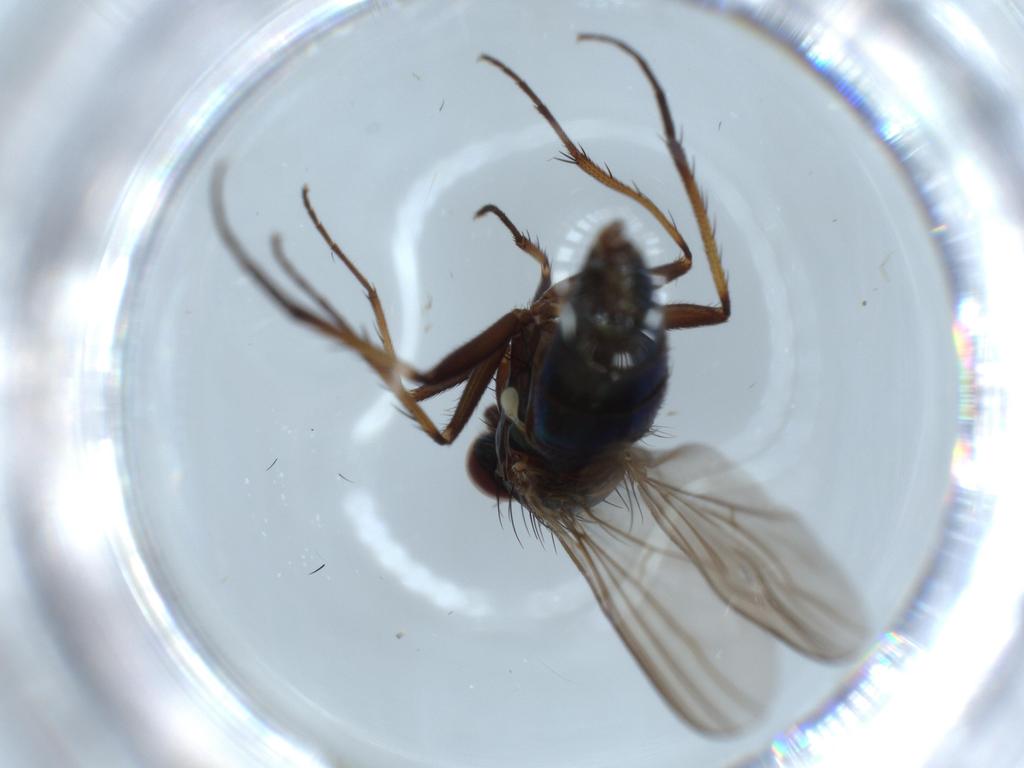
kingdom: Animalia
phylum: Arthropoda
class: Insecta
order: Diptera
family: Dolichopodidae
